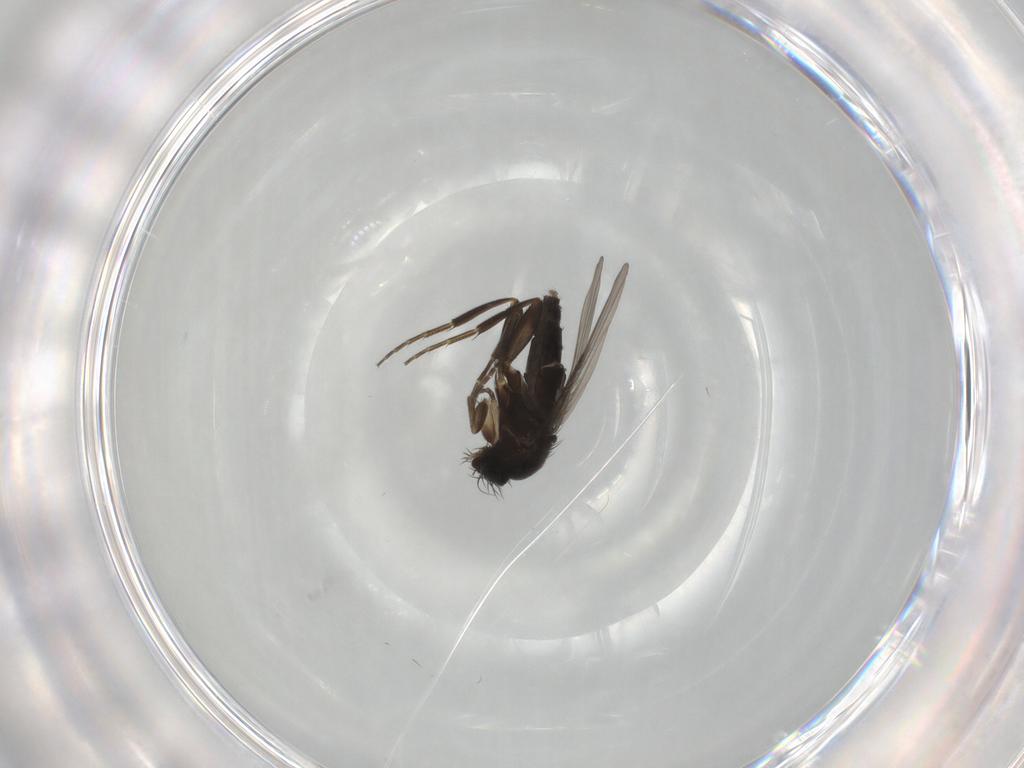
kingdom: Animalia
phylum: Arthropoda
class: Insecta
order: Diptera
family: Phoridae
